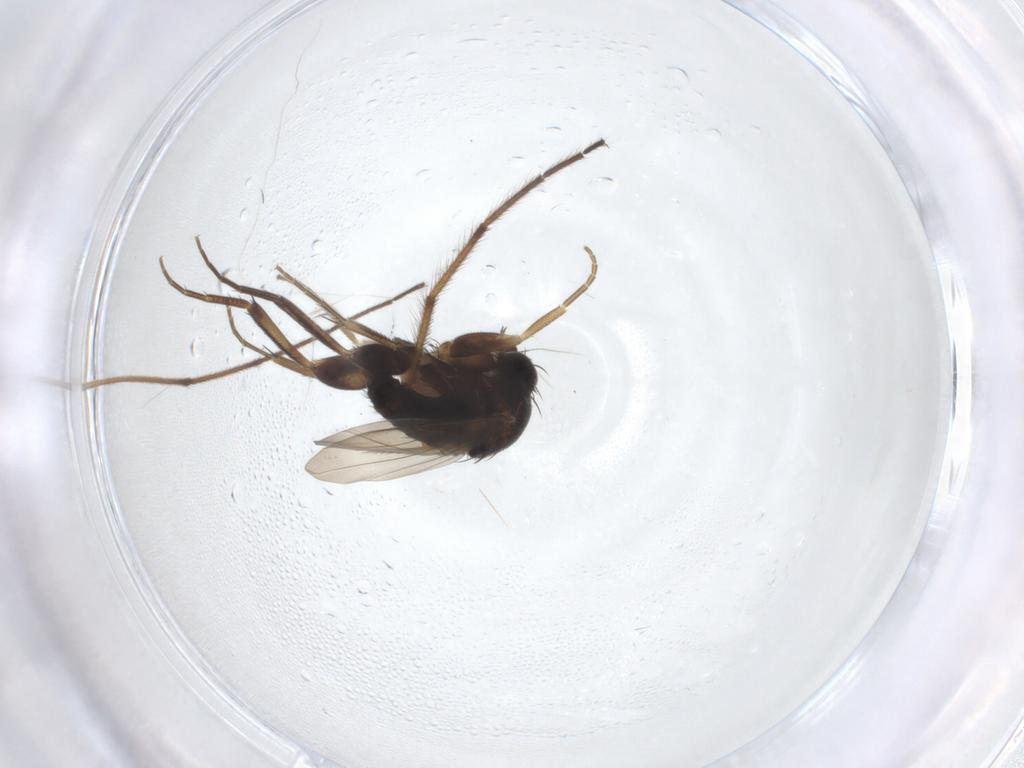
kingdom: Animalia
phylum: Arthropoda
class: Insecta
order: Diptera
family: Phoridae
